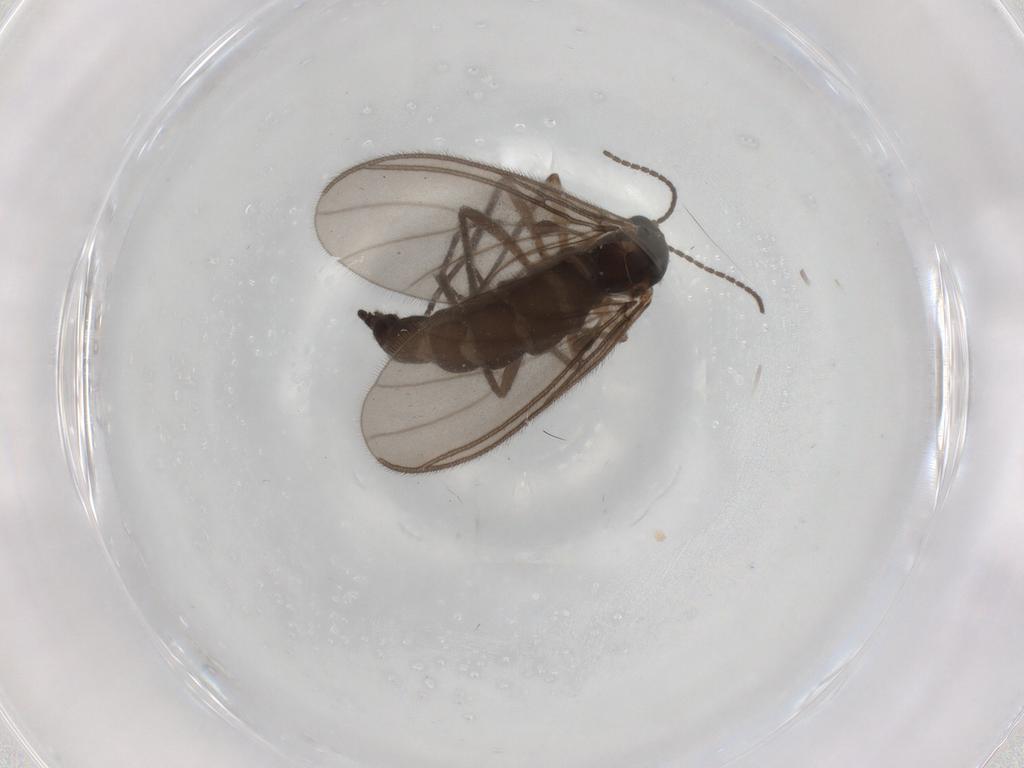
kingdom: Animalia
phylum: Arthropoda
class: Insecta
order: Diptera
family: Sciaridae
